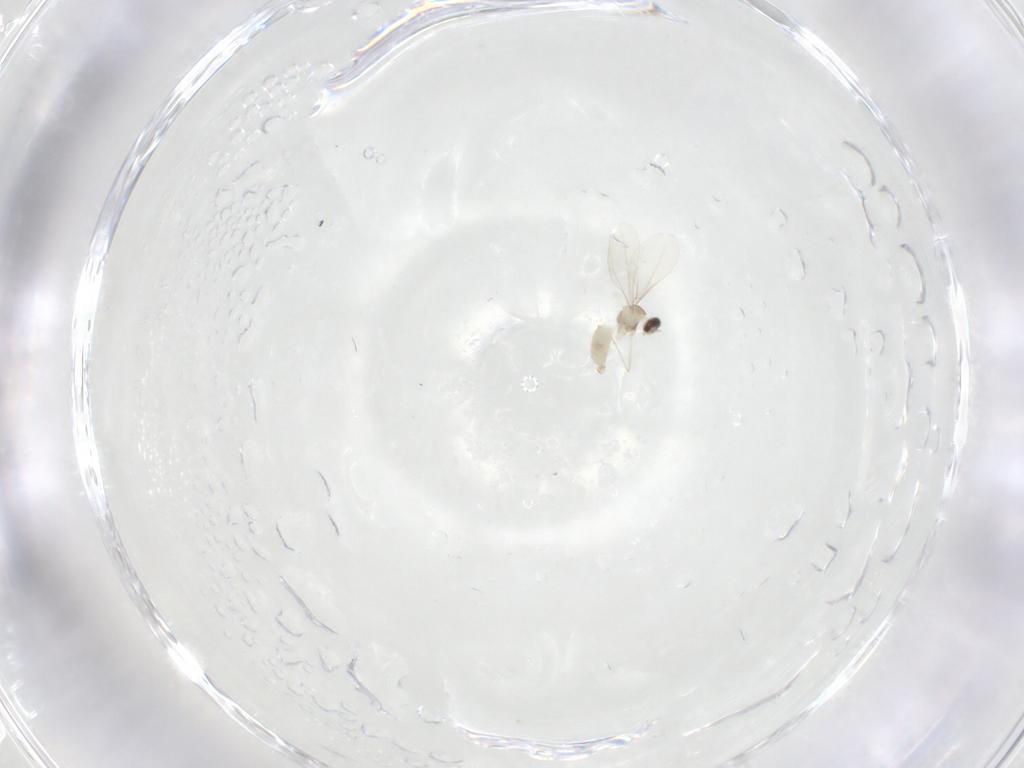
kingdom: Animalia
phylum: Arthropoda
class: Insecta
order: Diptera
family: Cecidomyiidae
